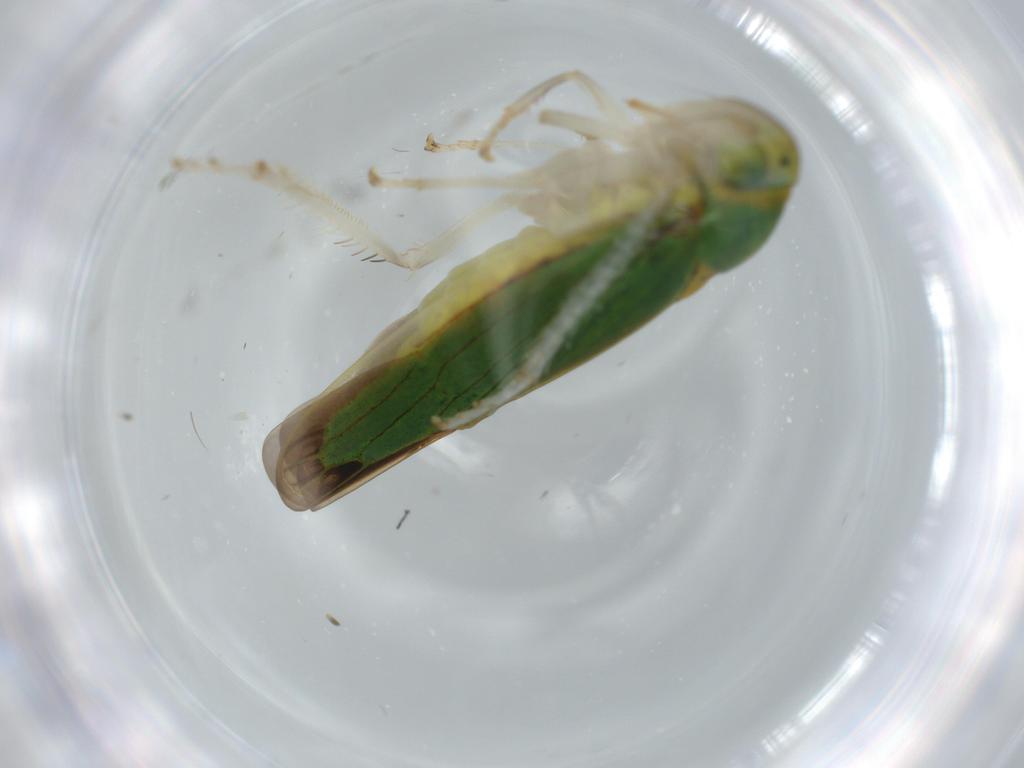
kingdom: Animalia
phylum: Arthropoda
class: Insecta
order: Hemiptera
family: Cicadellidae
